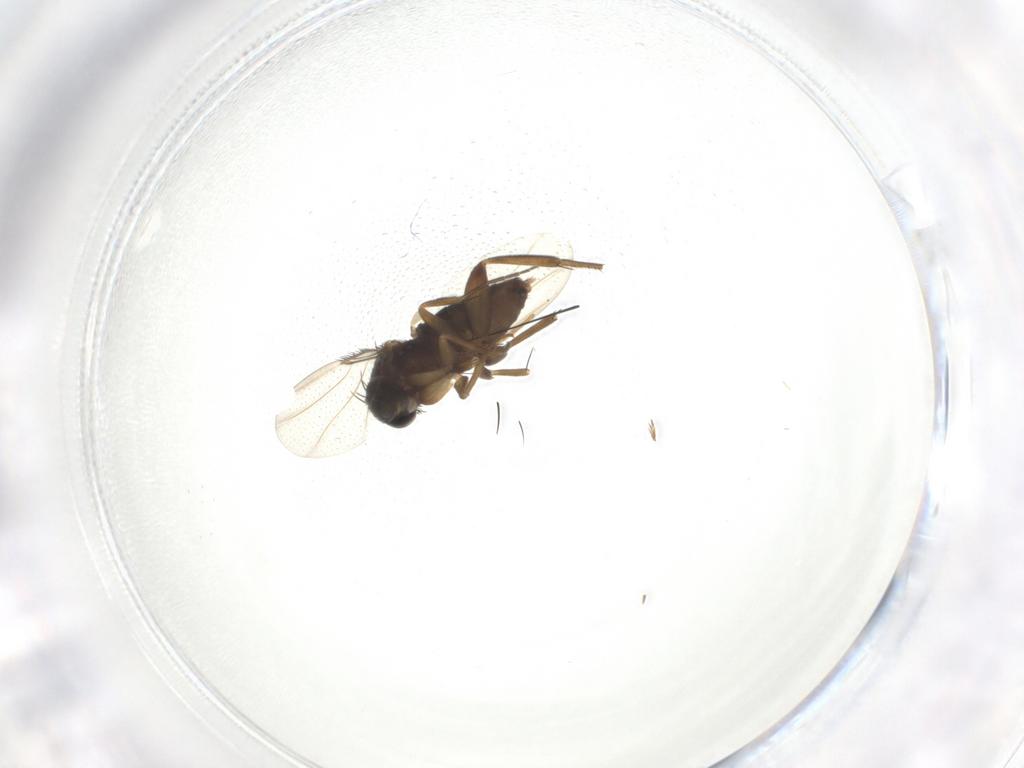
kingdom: Animalia
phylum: Arthropoda
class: Insecta
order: Diptera
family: Phoridae
